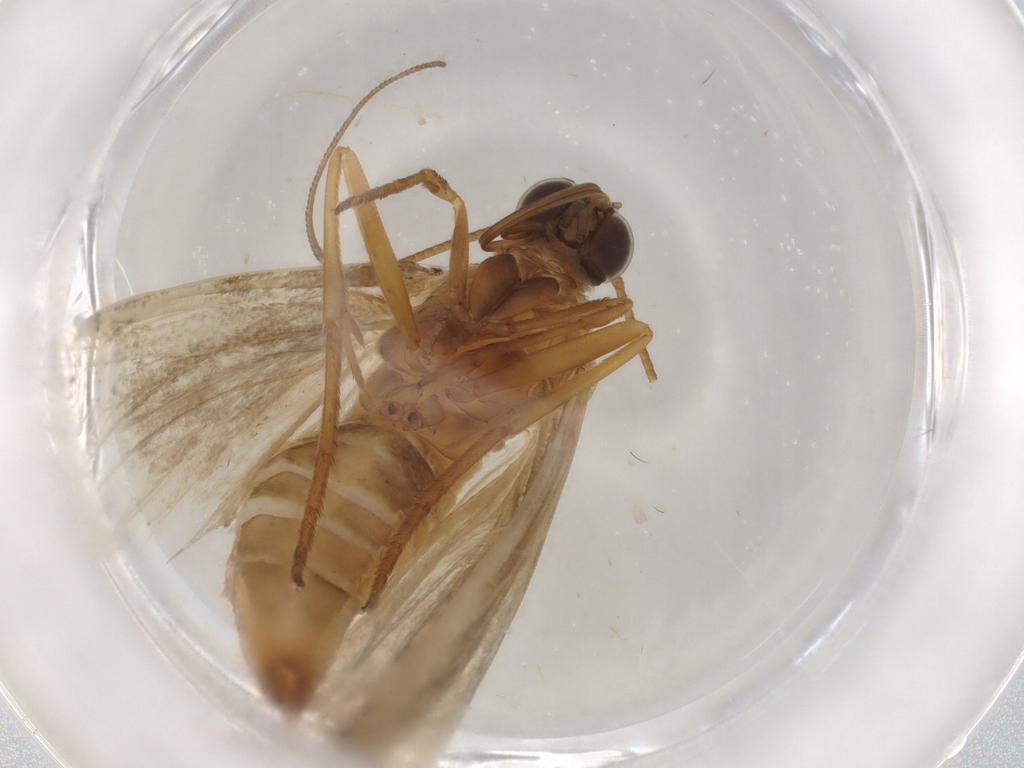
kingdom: Animalia
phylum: Arthropoda
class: Insecta
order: Lepidoptera
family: Pyralidae
